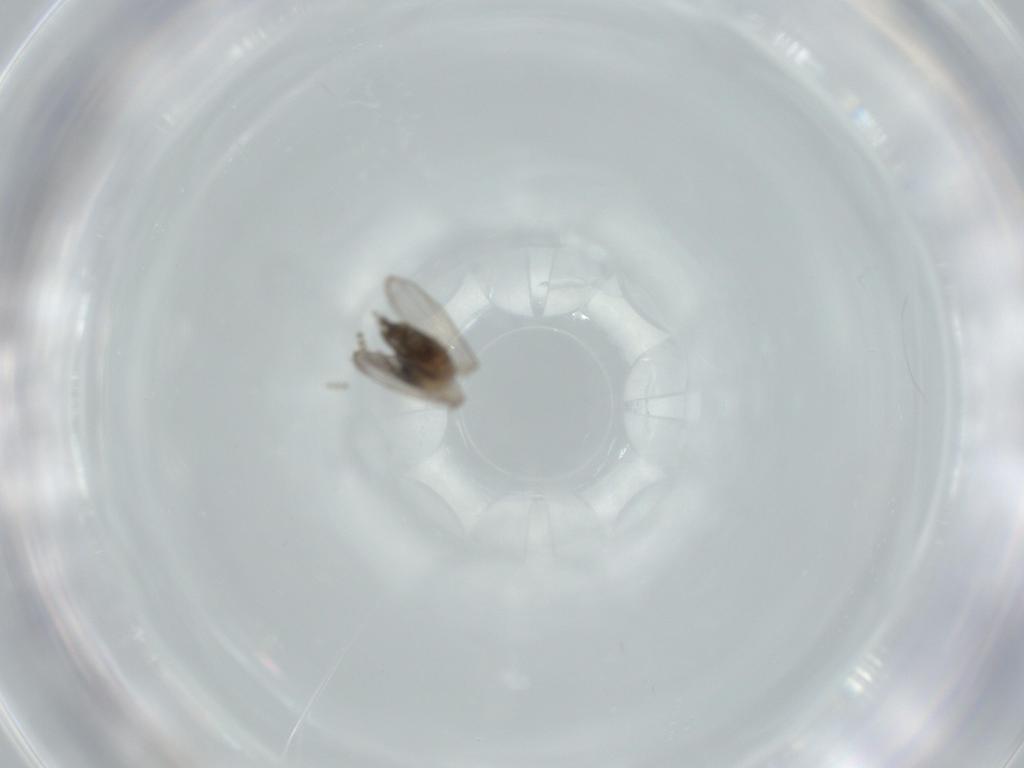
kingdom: Animalia
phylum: Arthropoda
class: Insecta
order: Diptera
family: Psychodidae
